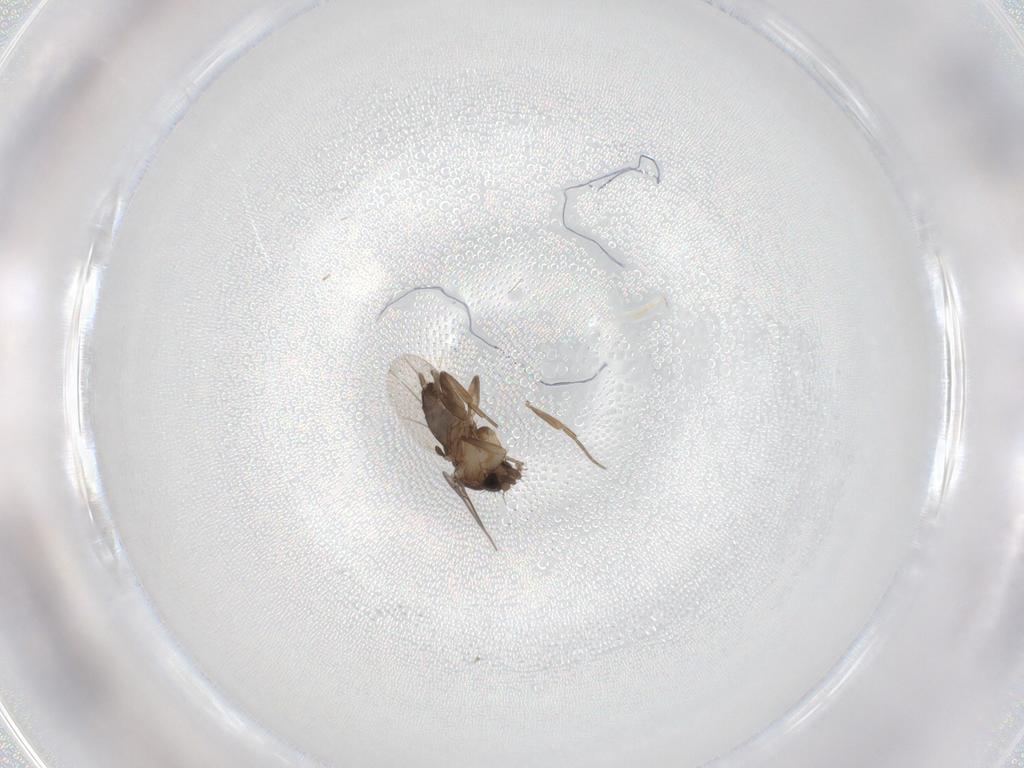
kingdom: Animalia
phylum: Arthropoda
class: Insecta
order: Diptera
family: Phoridae
